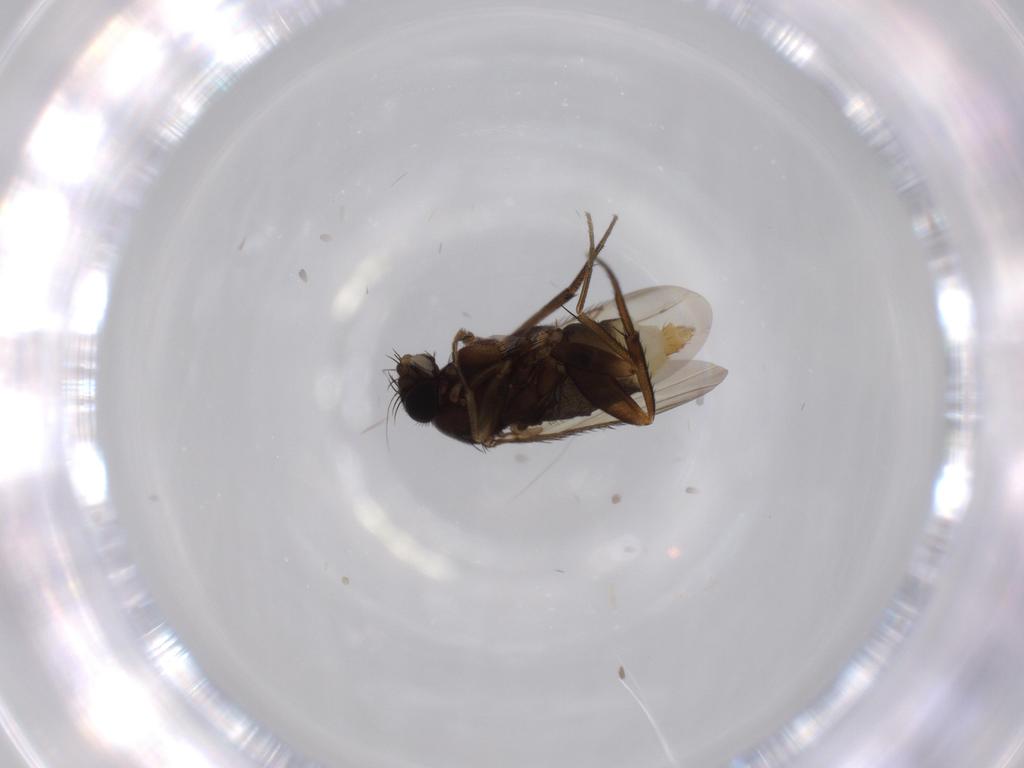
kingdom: Animalia
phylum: Arthropoda
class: Insecta
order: Diptera
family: Phoridae
